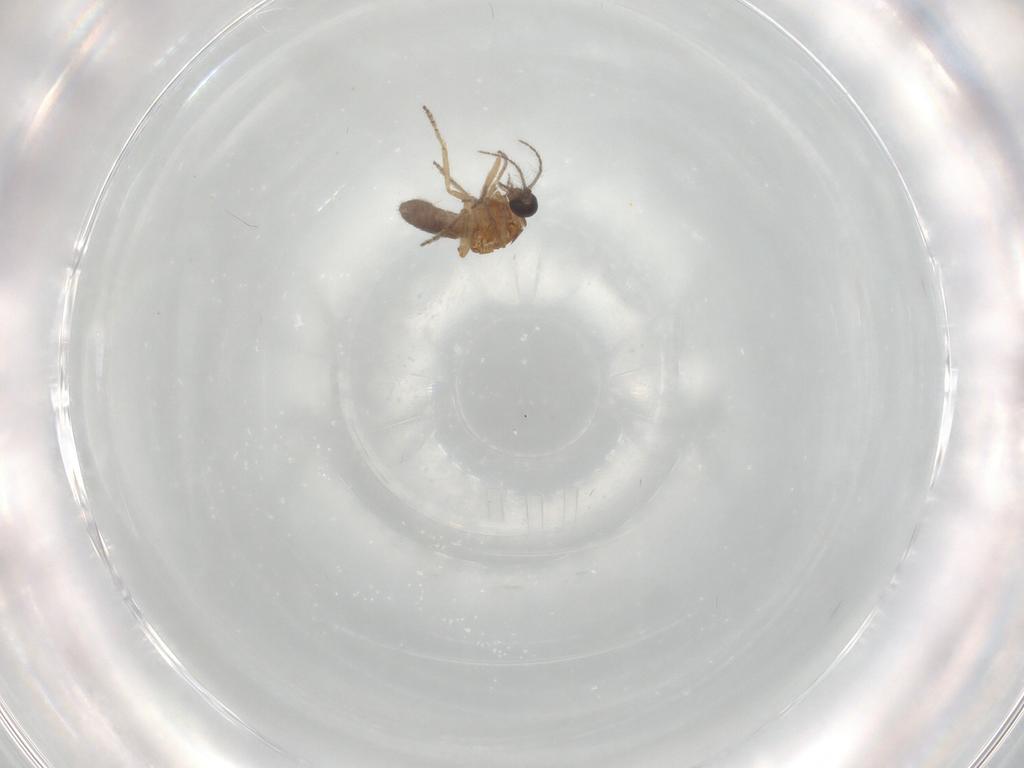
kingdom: Animalia
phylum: Arthropoda
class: Insecta
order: Diptera
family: Ceratopogonidae
